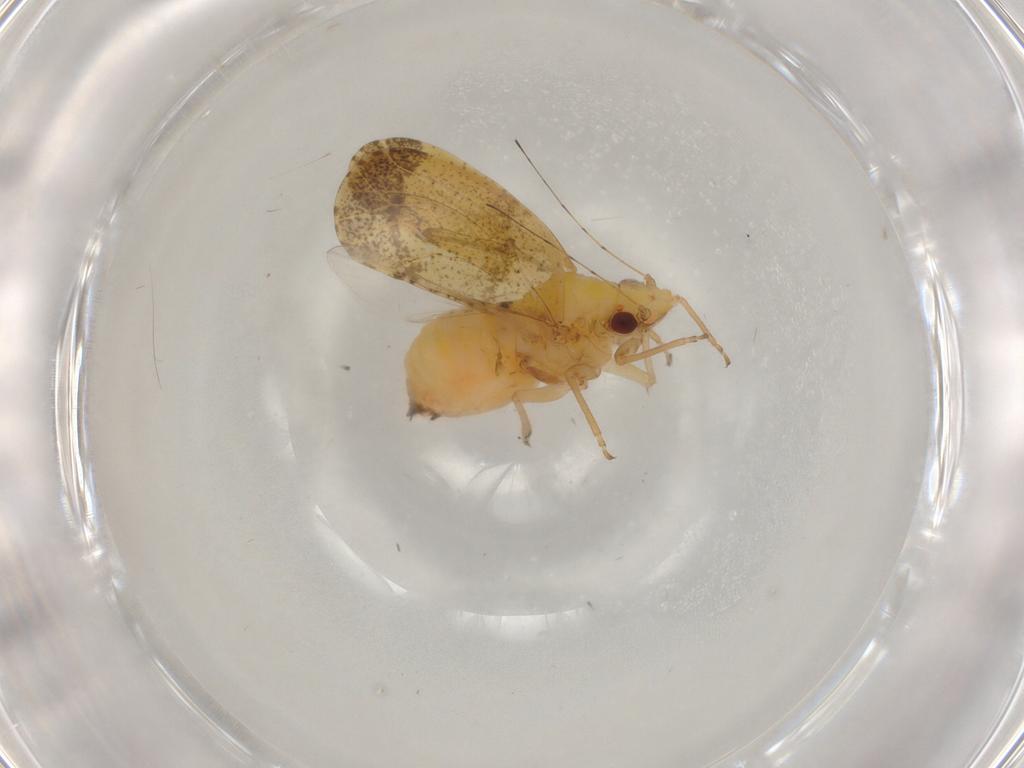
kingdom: Animalia
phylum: Arthropoda
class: Insecta
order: Hemiptera
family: Psyllidae
